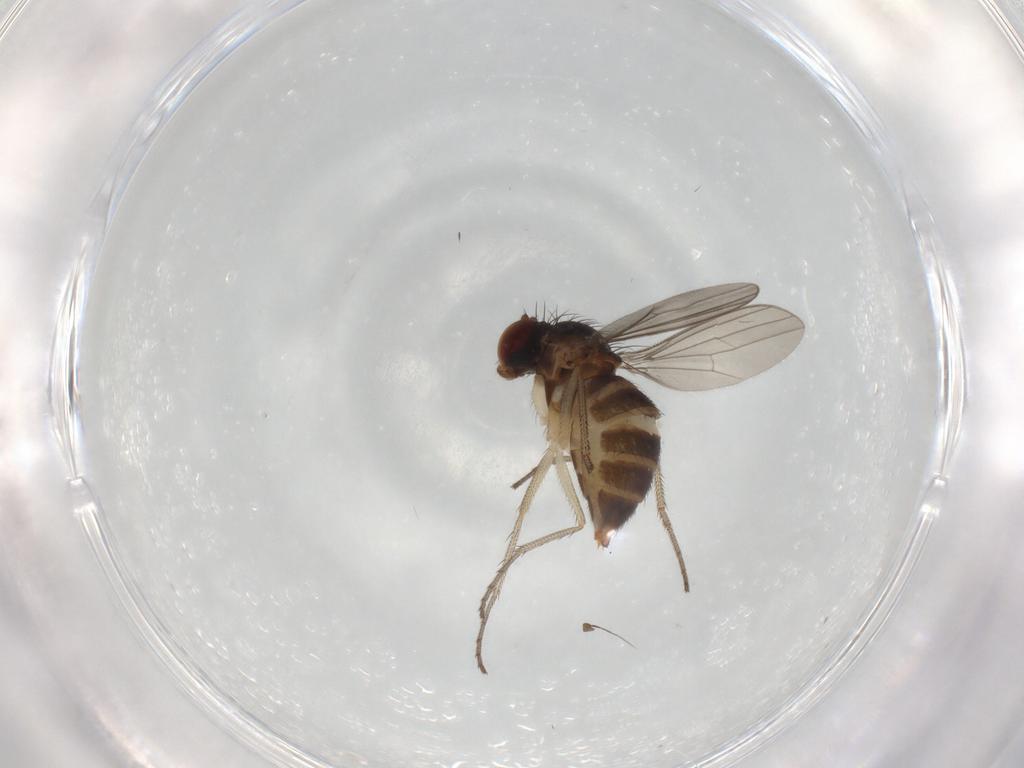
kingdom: Animalia
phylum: Arthropoda
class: Insecta
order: Diptera
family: Dolichopodidae
